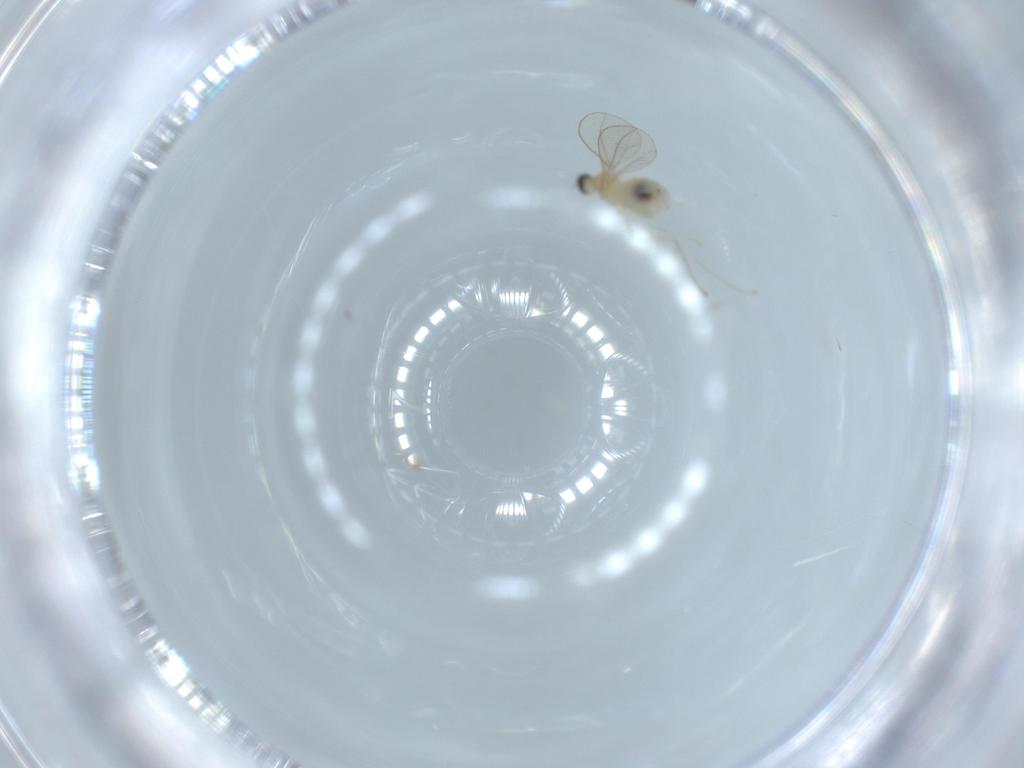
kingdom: Animalia
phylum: Arthropoda
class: Insecta
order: Diptera
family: Cecidomyiidae
